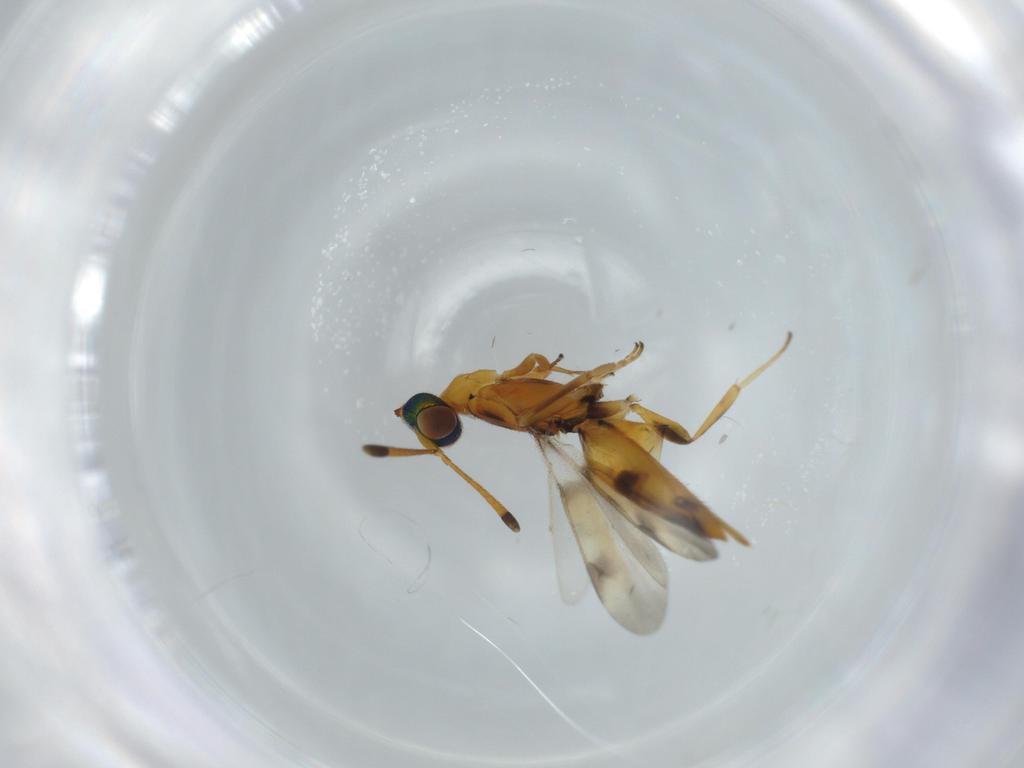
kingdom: Animalia
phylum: Arthropoda
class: Insecta
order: Hymenoptera
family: Eupelmidae
